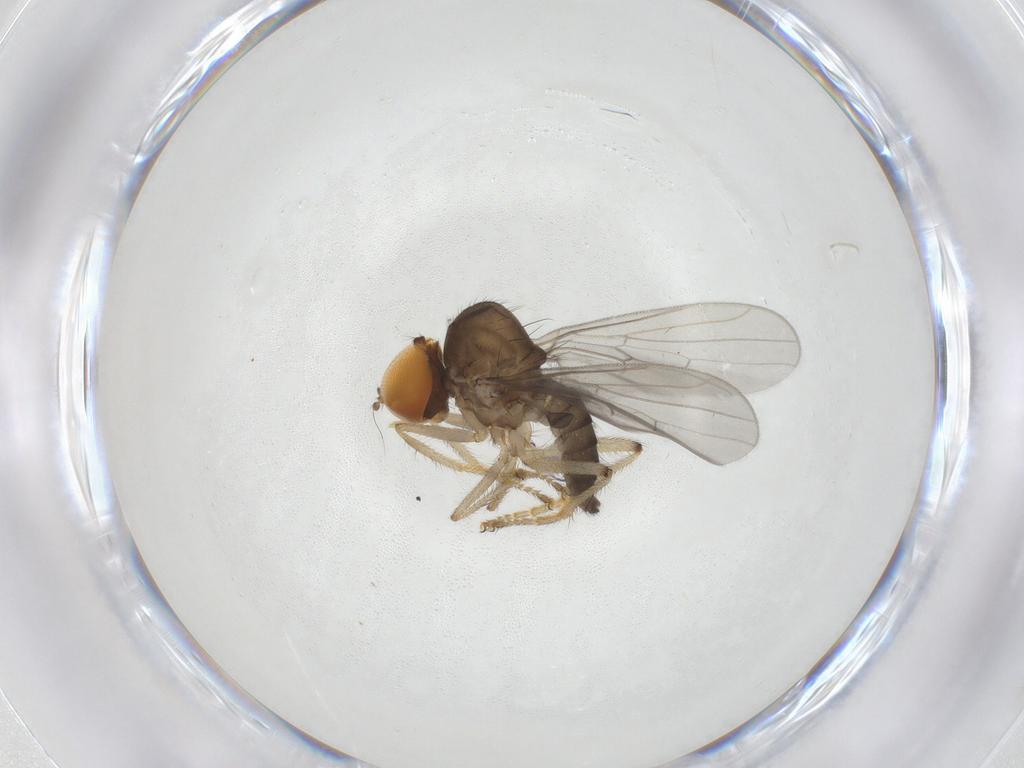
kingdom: Animalia
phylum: Arthropoda
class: Insecta
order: Diptera
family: Hybotidae
